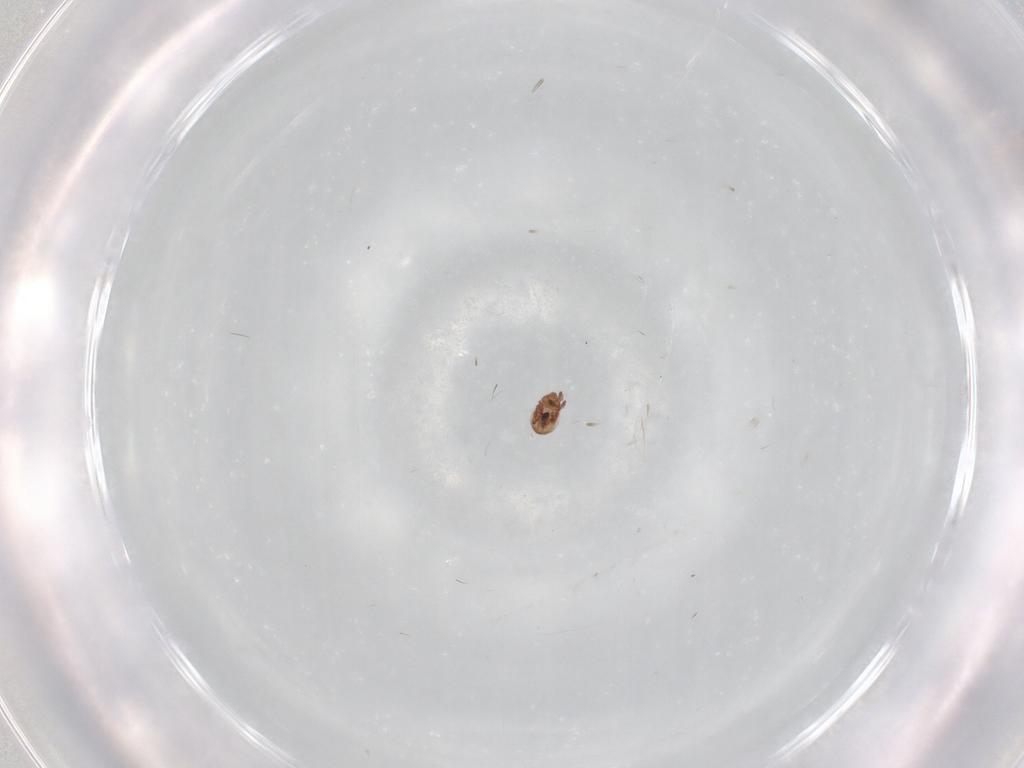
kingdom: Animalia
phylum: Arthropoda
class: Arachnida
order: Sarcoptiformes
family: Eremaeidae
